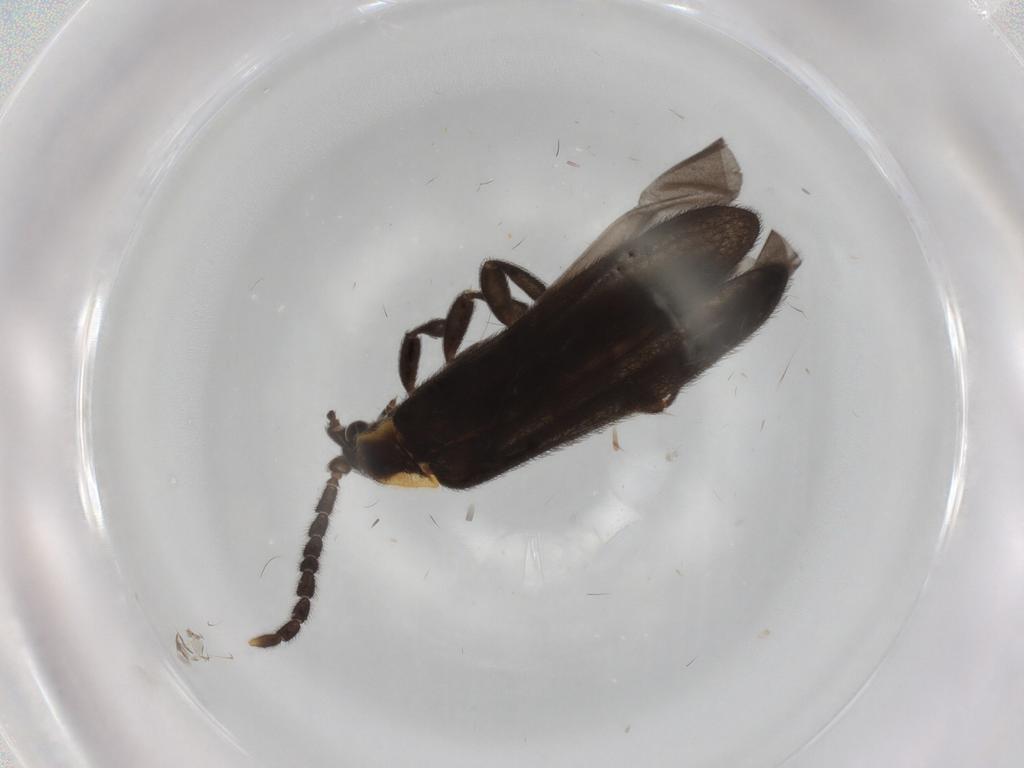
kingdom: Animalia
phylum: Arthropoda
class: Insecta
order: Coleoptera
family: Lycidae
